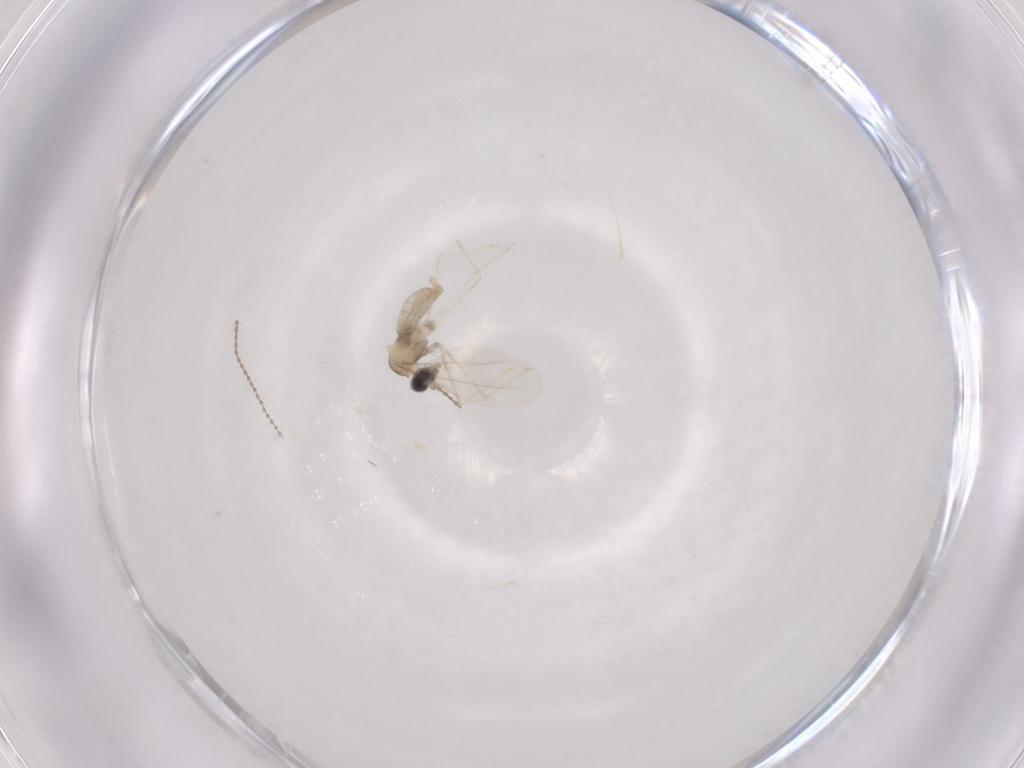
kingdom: Animalia
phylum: Arthropoda
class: Insecta
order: Diptera
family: Cecidomyiidae
